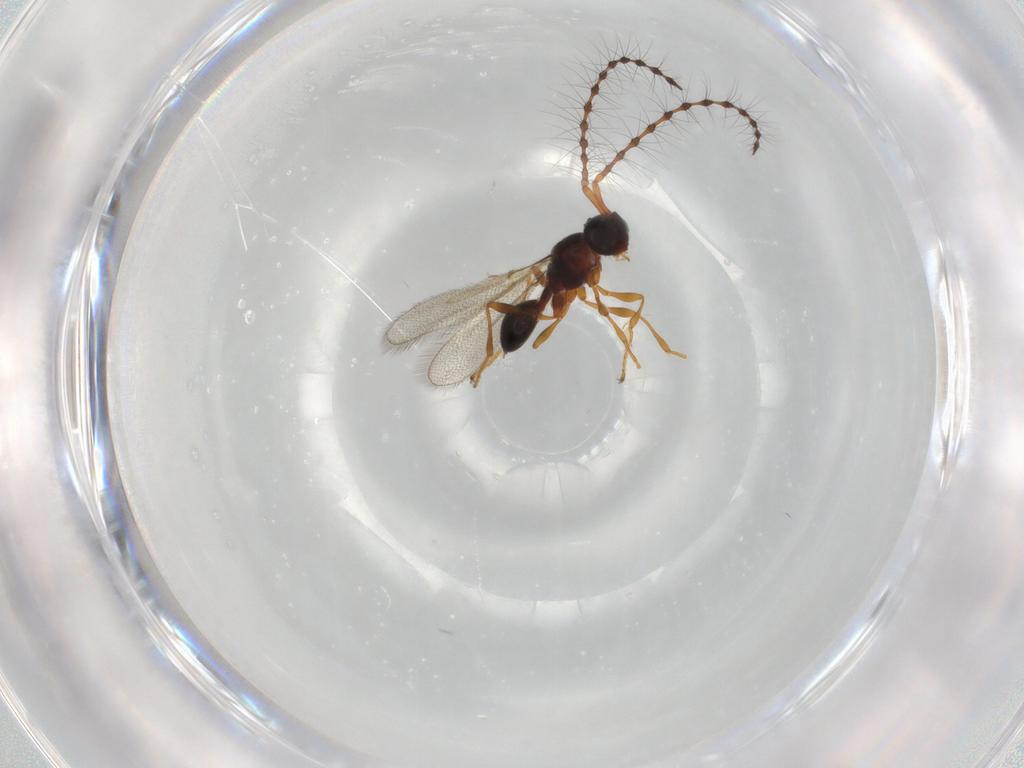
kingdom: Animalia
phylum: Arthropoda
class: Insecta
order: Hymenoptera
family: Diapriidae
